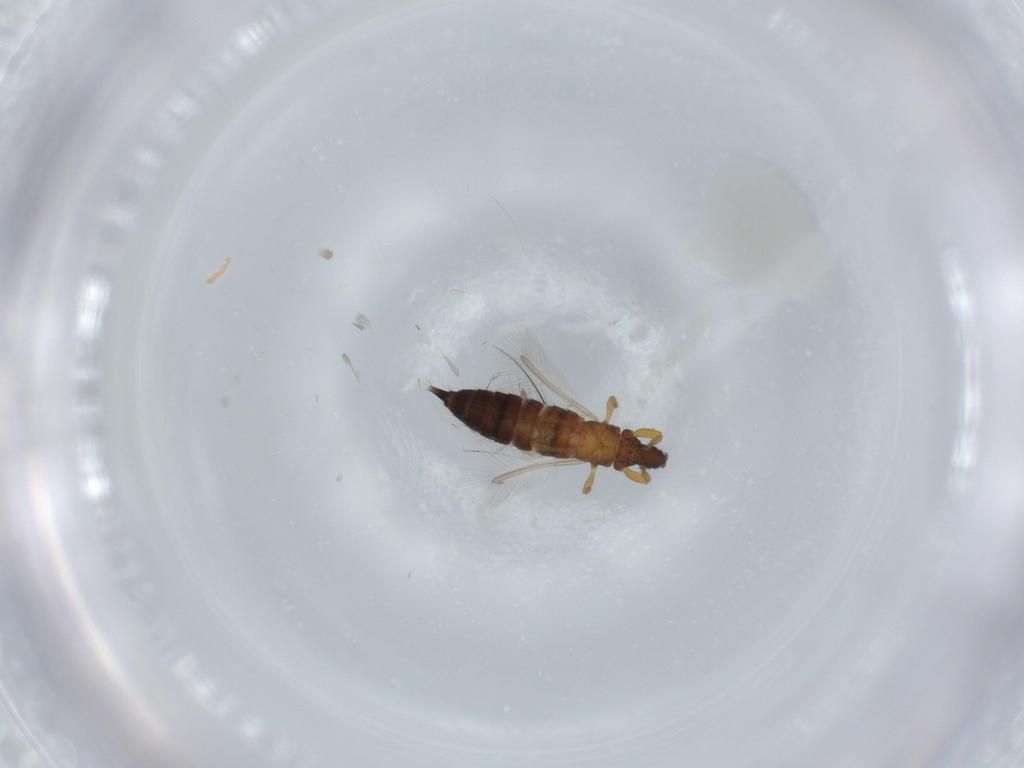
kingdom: Animalia
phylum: Arthropoda
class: Insecta
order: Thysanoptera
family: Phlaeothripidae
